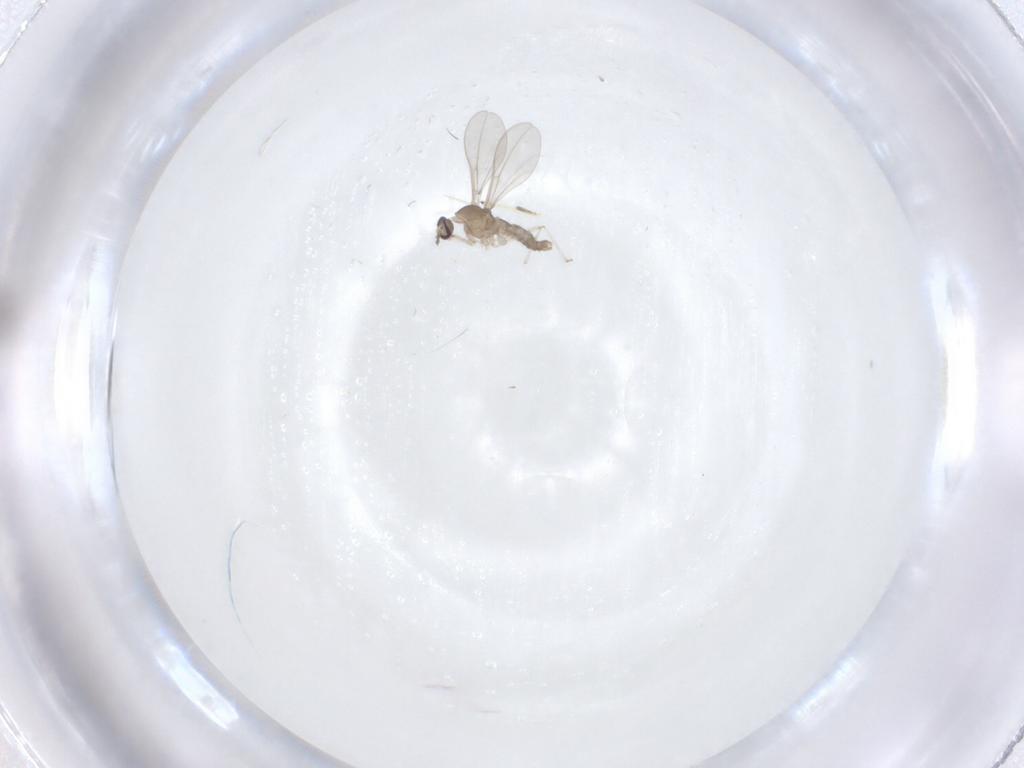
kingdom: Animalia
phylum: Arthropoda
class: Insecta
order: Diptera
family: Cecidomyiidae
